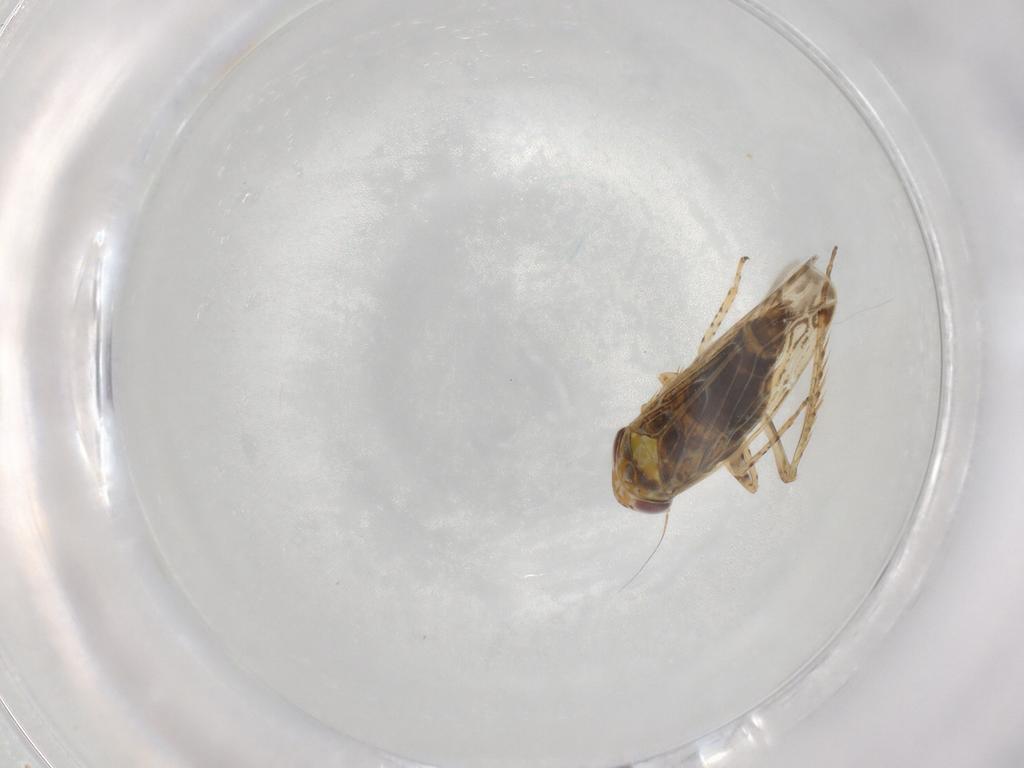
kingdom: Animalia
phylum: Arthropoda
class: Insecta
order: Hemiptera
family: Cicadellidae
